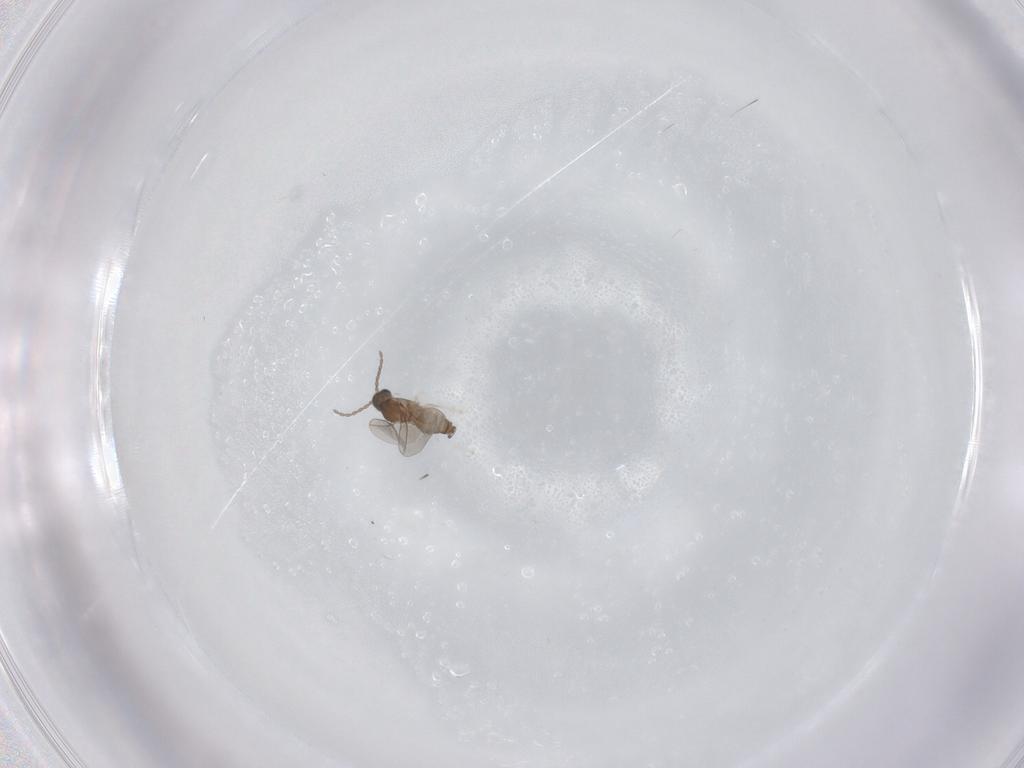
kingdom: Animalia
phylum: Arthropoda
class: Insecta
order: Diptera
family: Cecidomyiidae
